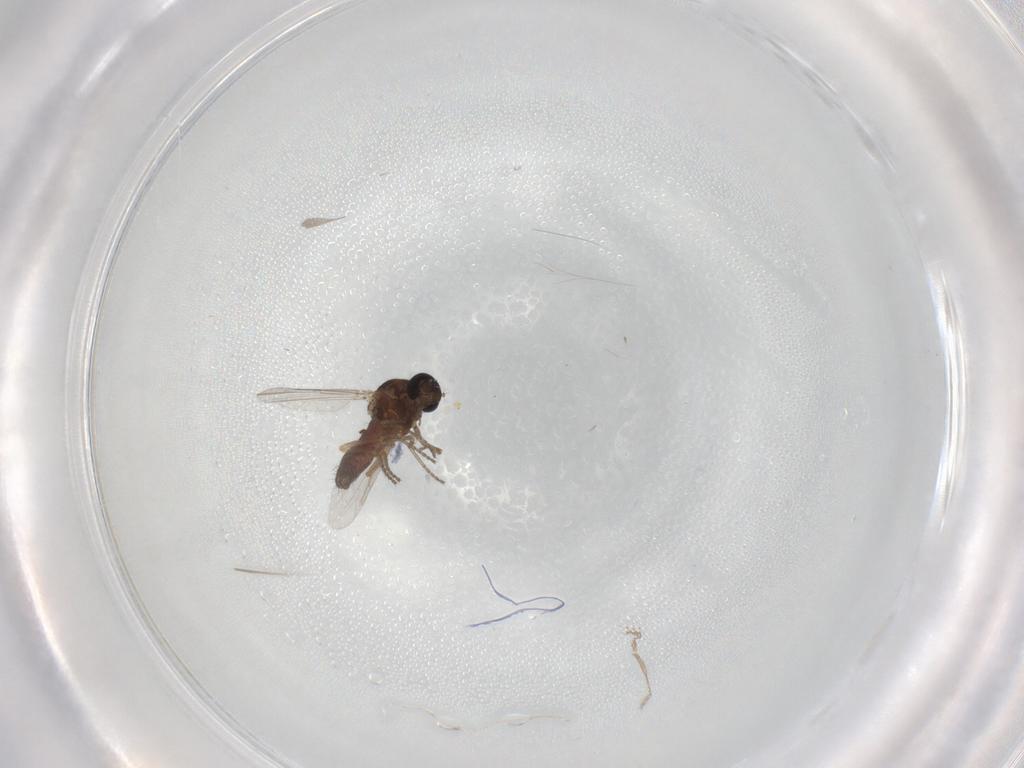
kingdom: Animalia
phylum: Arthropoda
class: Insecta
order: Diptera
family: Ceratopogonidae
